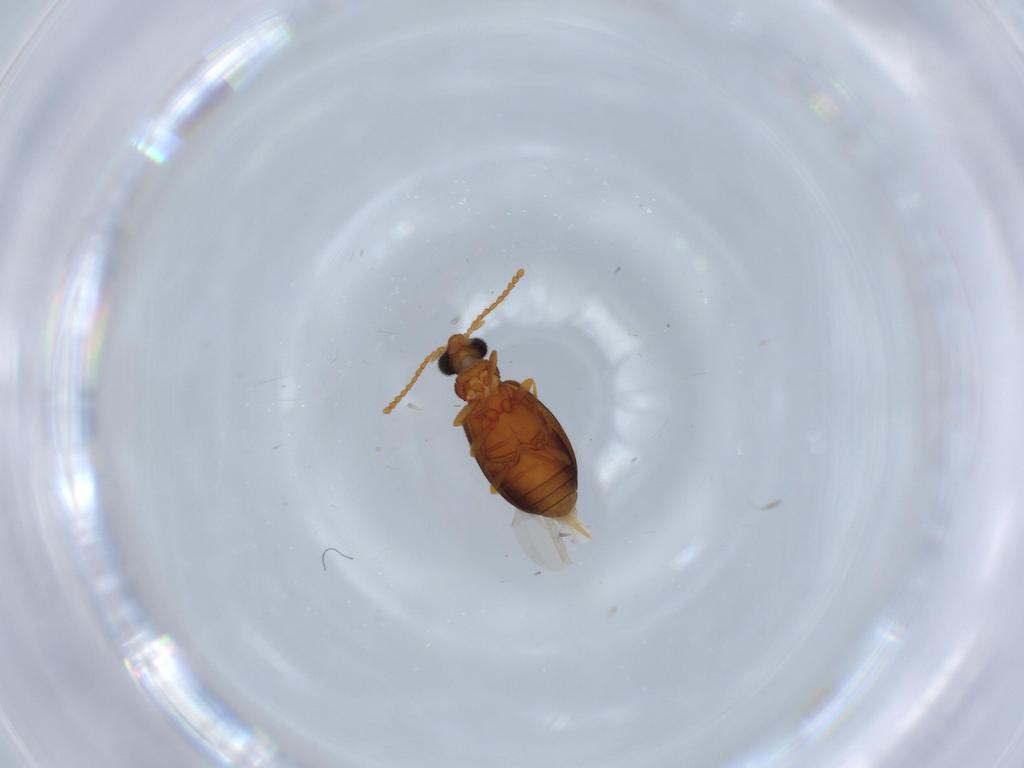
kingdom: Animalia
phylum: Arthropoda
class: Insecta
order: Coleoptera
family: Aderidae
